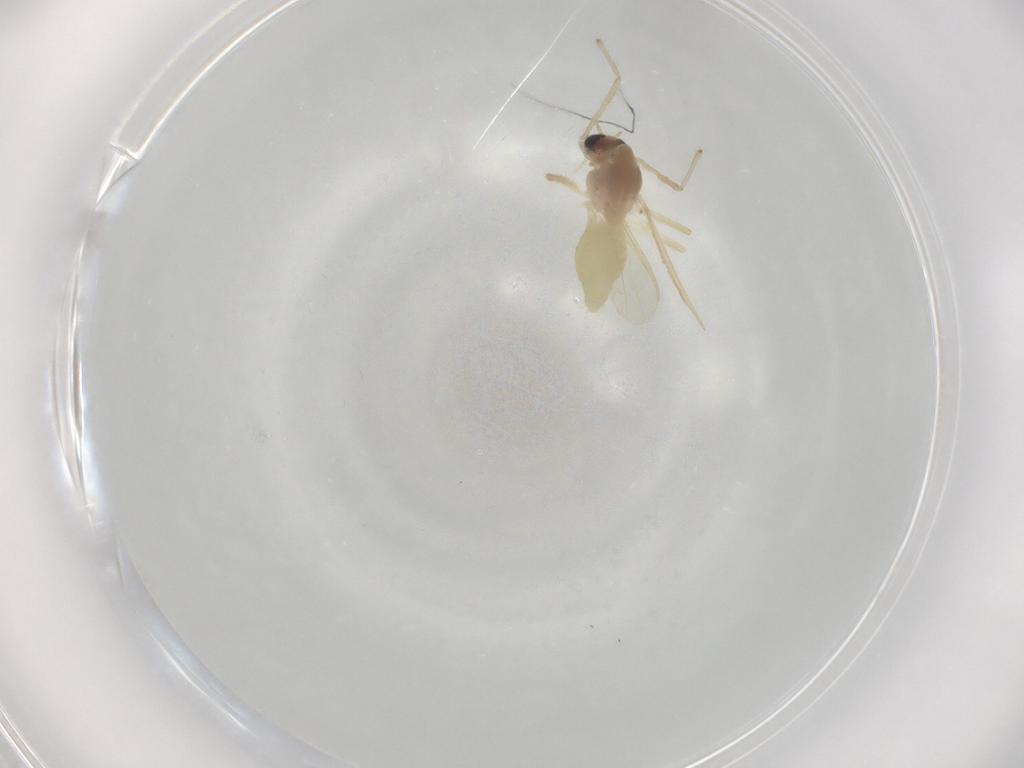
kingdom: Animalia
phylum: Arthropoda
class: Insecta
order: Diptera
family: Chironomidae
